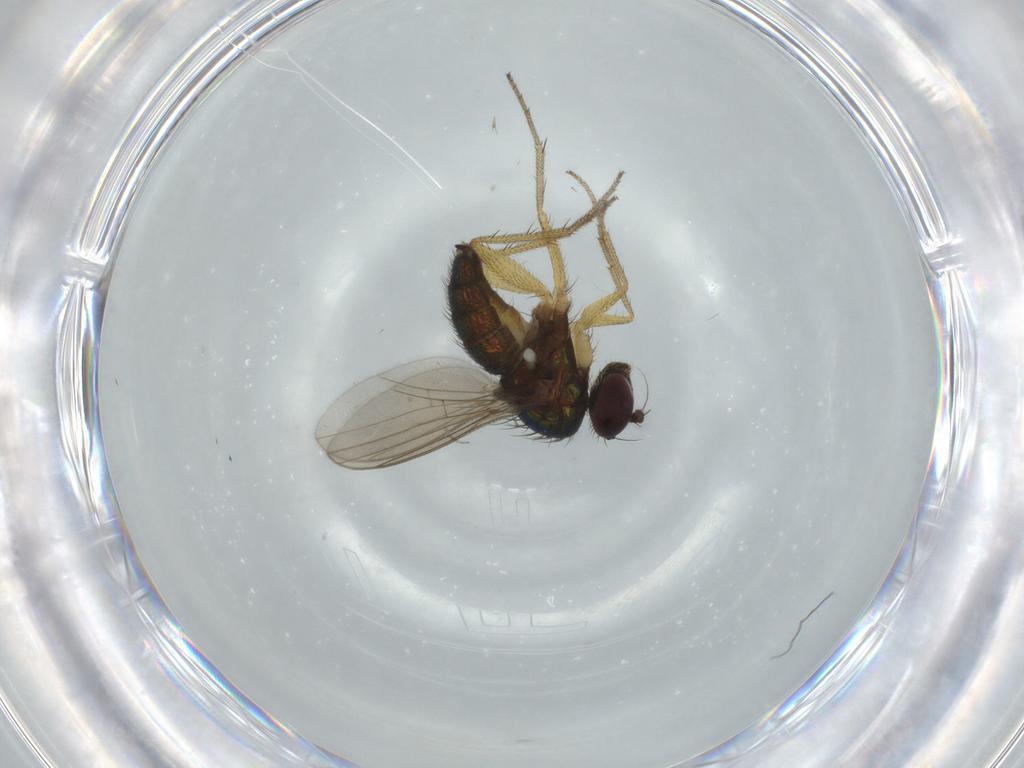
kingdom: Animalia
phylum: Arthropoda
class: Insecta
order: Diptera
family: Chironomidae
